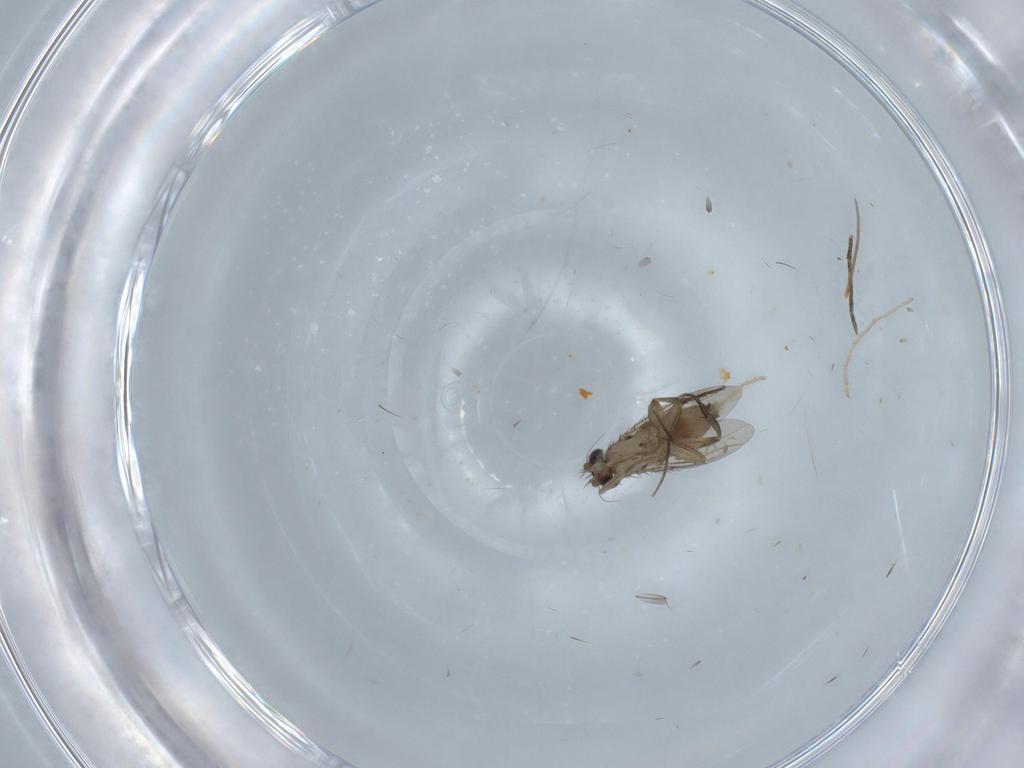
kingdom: Animalia
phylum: Arthropoda
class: Insecta
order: Diptera
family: Phoridae
